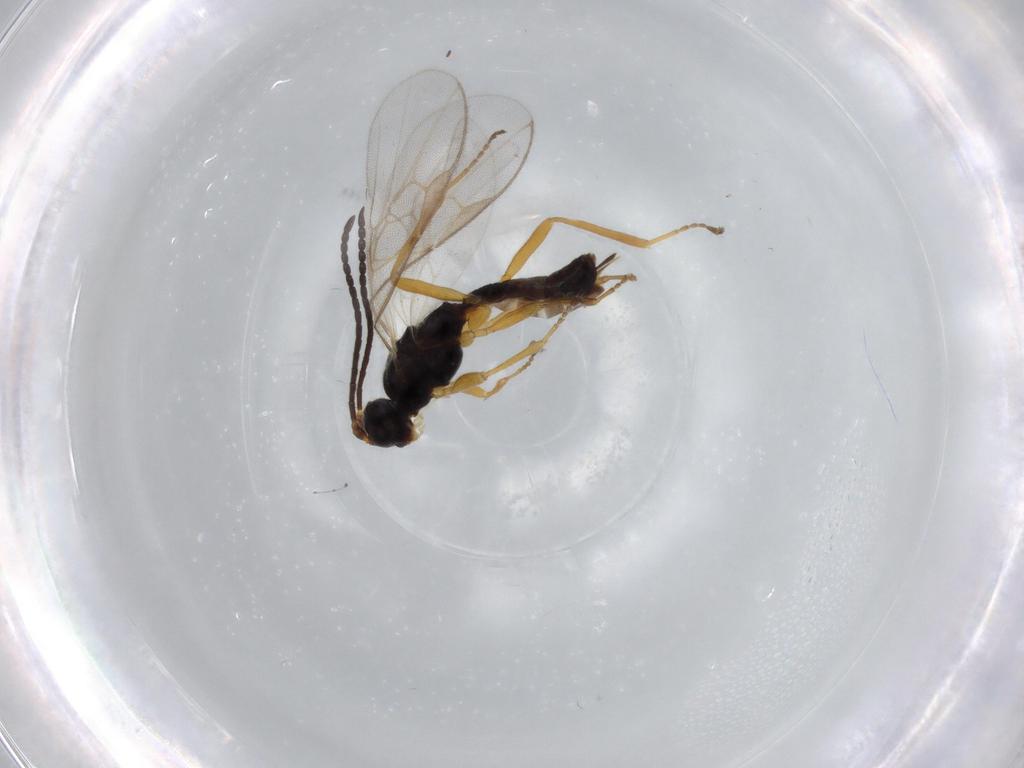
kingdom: Animalia
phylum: Arthropoda
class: Insecta
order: Hymenoptera
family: Braconidae
